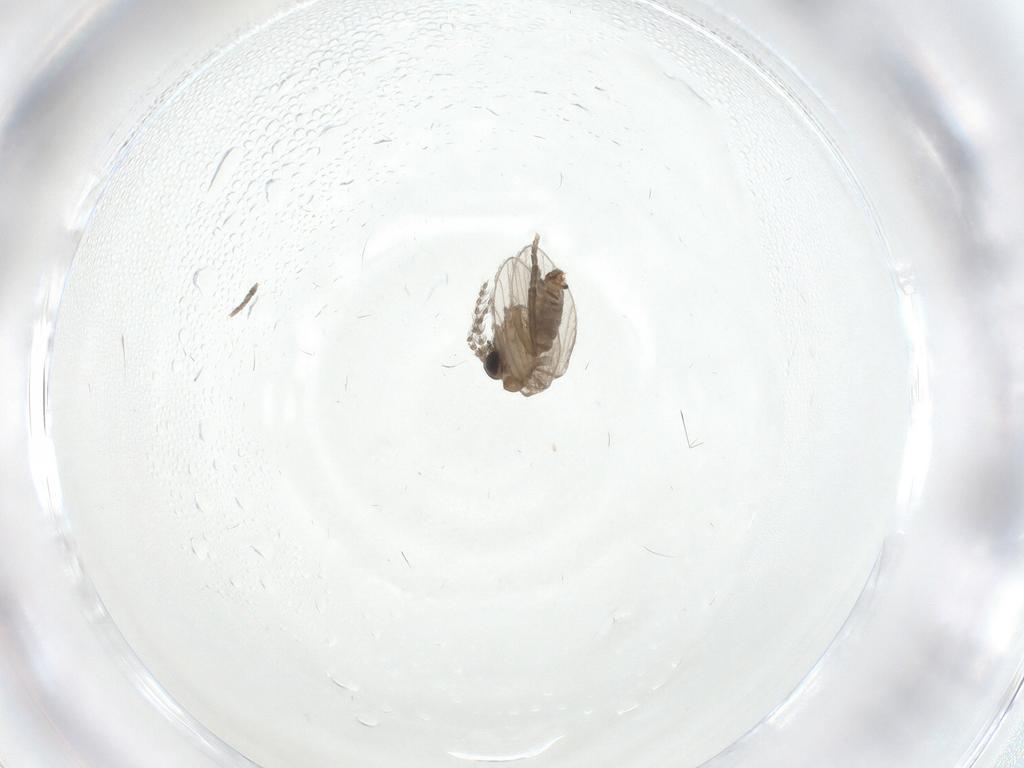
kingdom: Animalia
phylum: Arthropoda
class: Insecta
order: Diptera
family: Psychodidae
